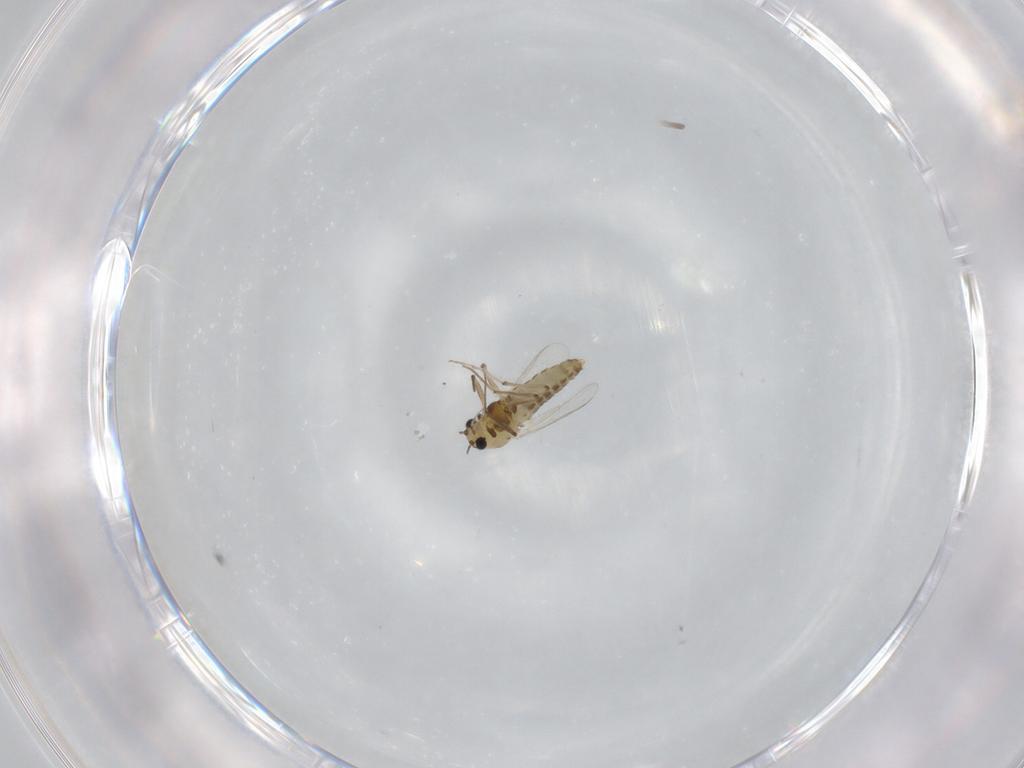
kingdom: Animalia
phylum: Arthropoda
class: Insecta
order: Diptera
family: Chironomidae
